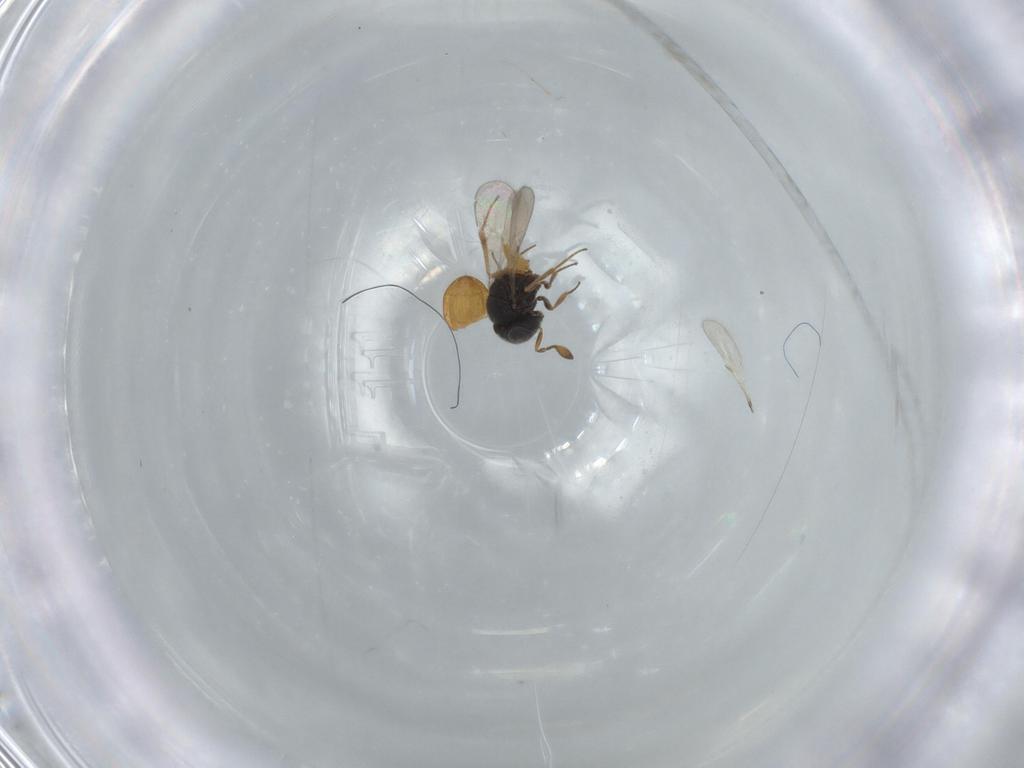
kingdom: Animalia
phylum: Arthropoda
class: Insecta
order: Hymenoptera
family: Scelionidae
